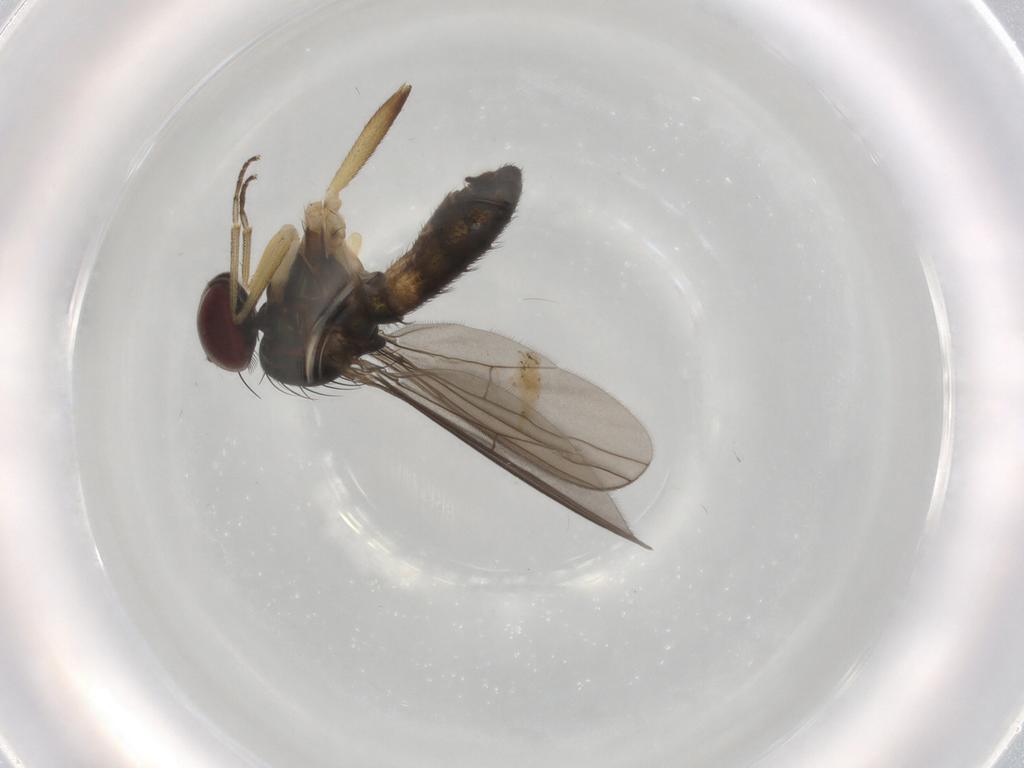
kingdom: Animalia
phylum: Arthropoda
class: Insecta
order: Diptera
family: Dolichopodidae
